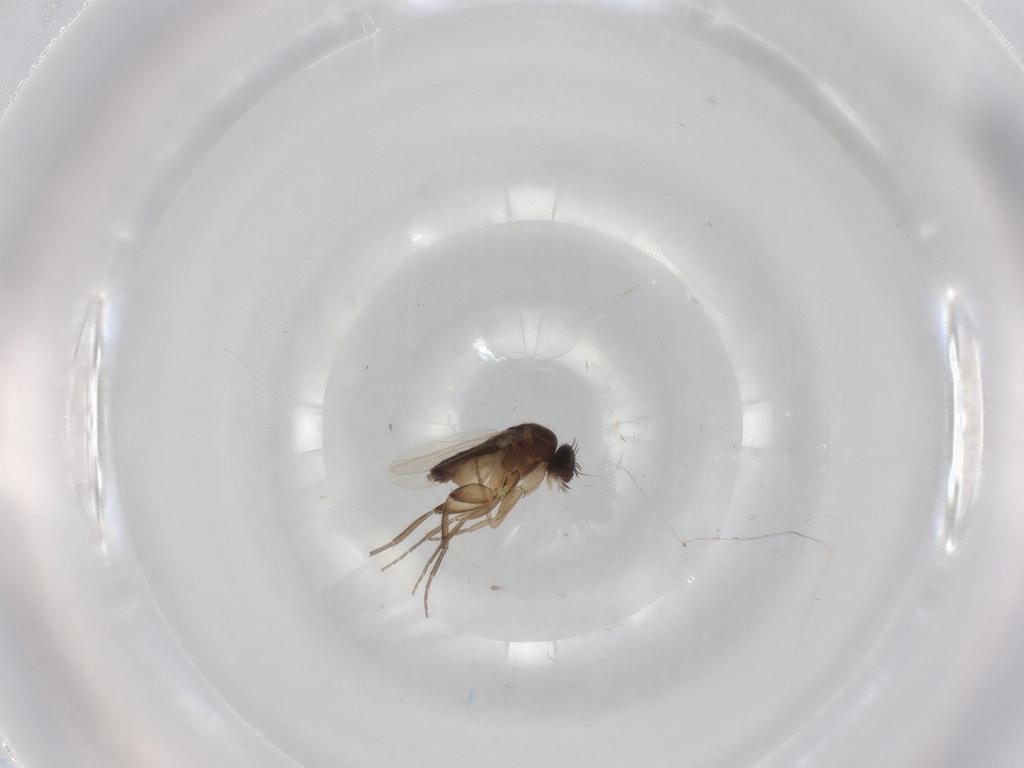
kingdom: Animalia
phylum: Arthropoda
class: Insecta
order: Diptera
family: Phoridae
